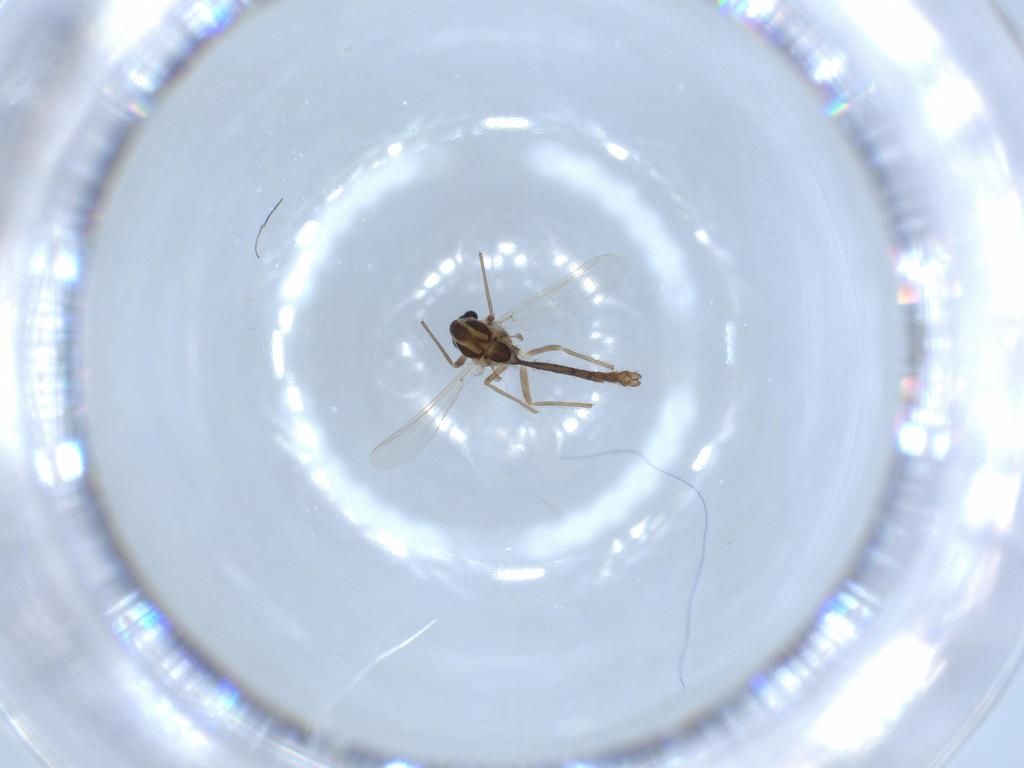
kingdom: Animalia
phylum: Arthropoda
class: Insecta
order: Diptera
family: Chironomidae
